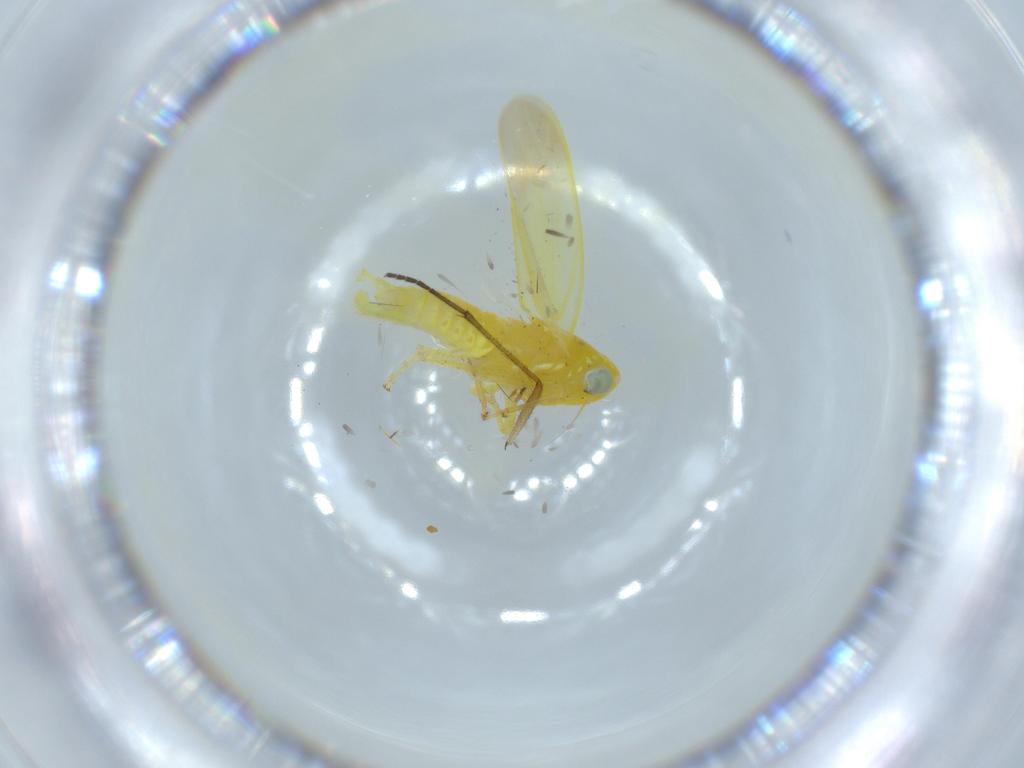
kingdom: Animalia
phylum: Arthropoda
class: Insecta
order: Hemiptera
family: Cicadellidae
